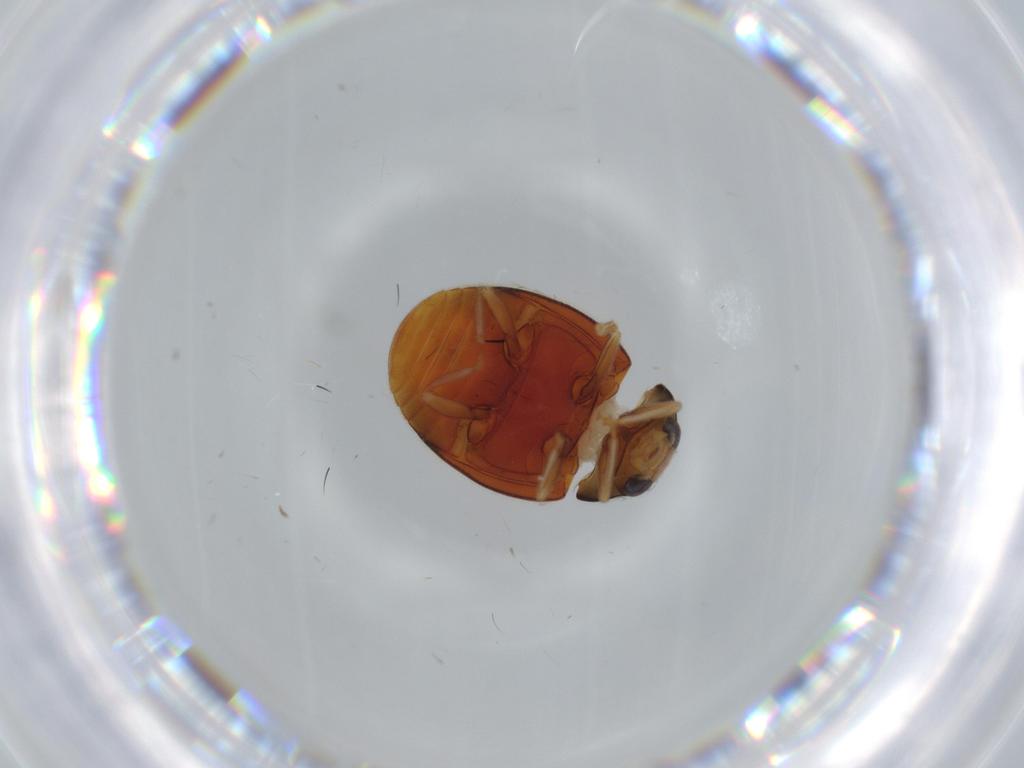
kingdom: Animalia
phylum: Arthropoda
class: Insecta
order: Coleoptera
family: Coccinellidae
